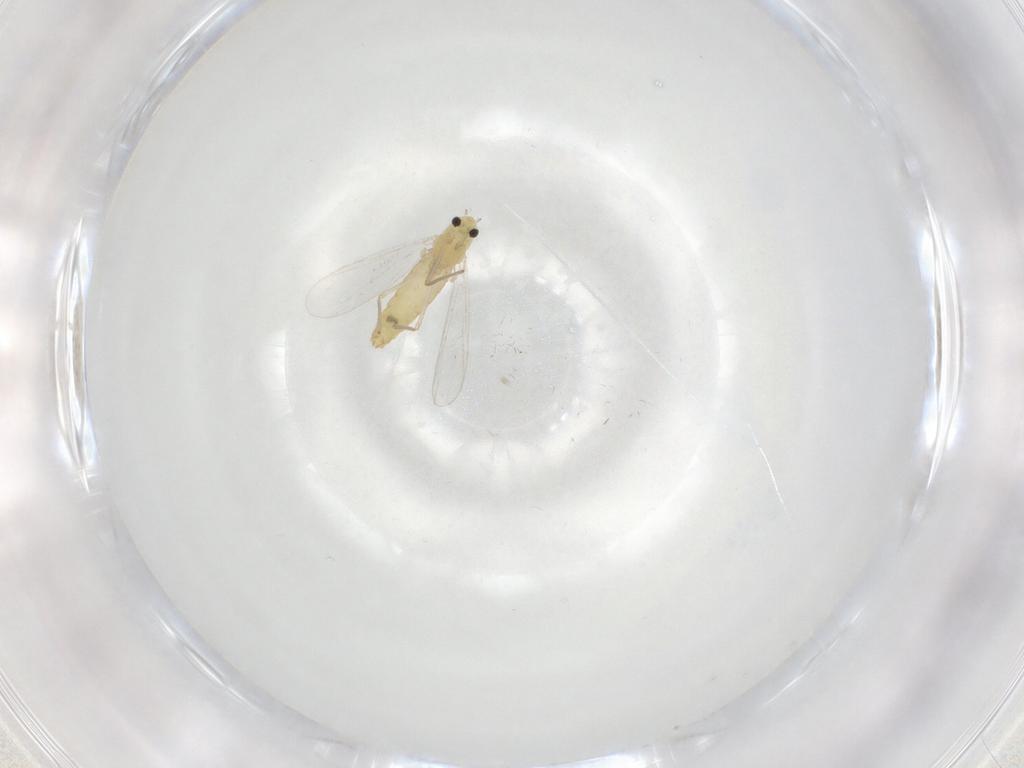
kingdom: Animalia
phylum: Arthropoda
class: Insecta
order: Diptera
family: Chironomidae
